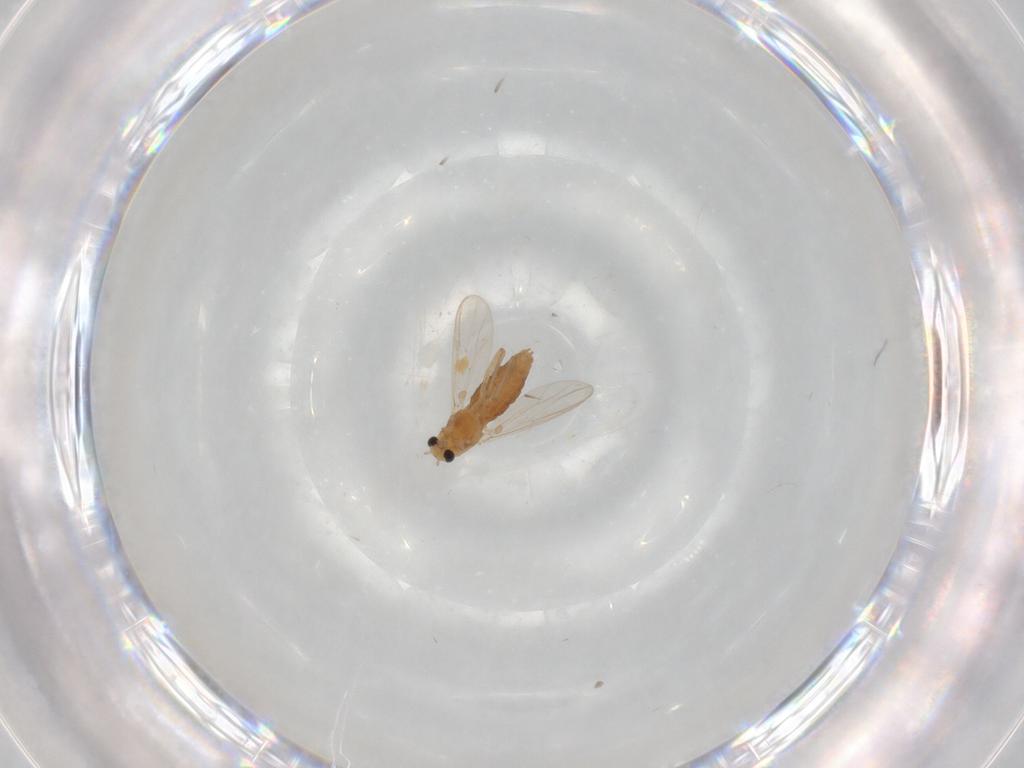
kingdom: Animalia
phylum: Arthropoda
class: Insecta
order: Diptera
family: Chironomidae
